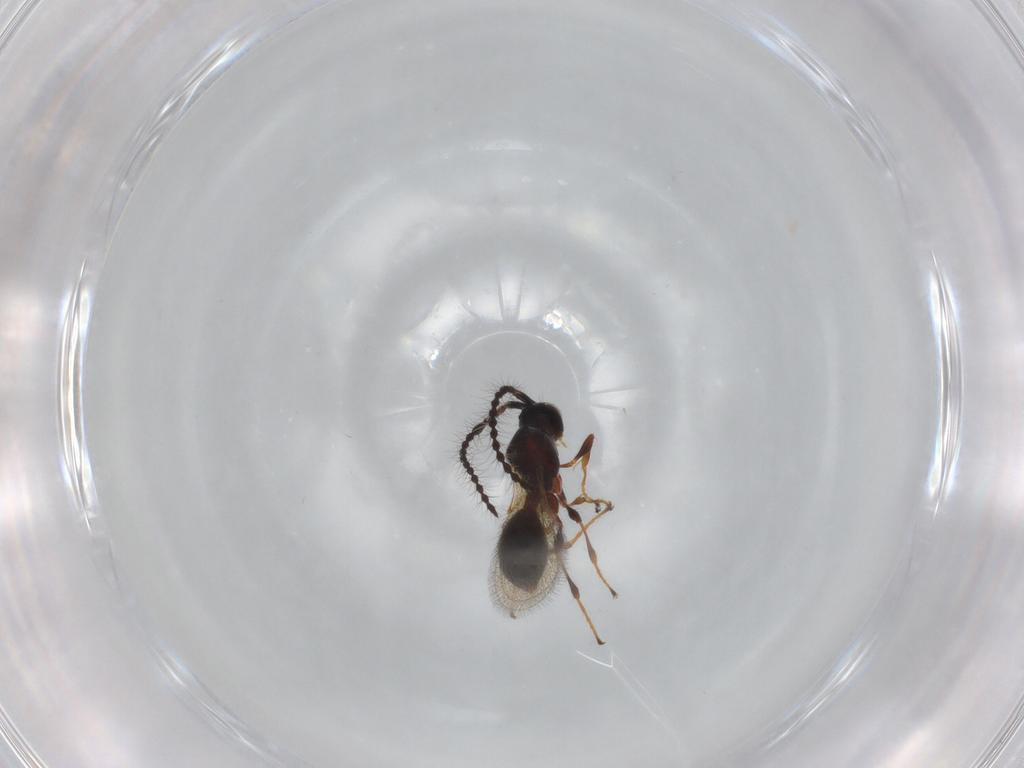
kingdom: Animalia
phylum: Arthropoda
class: Insecta
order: Hymenoptera
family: Diapriidae
